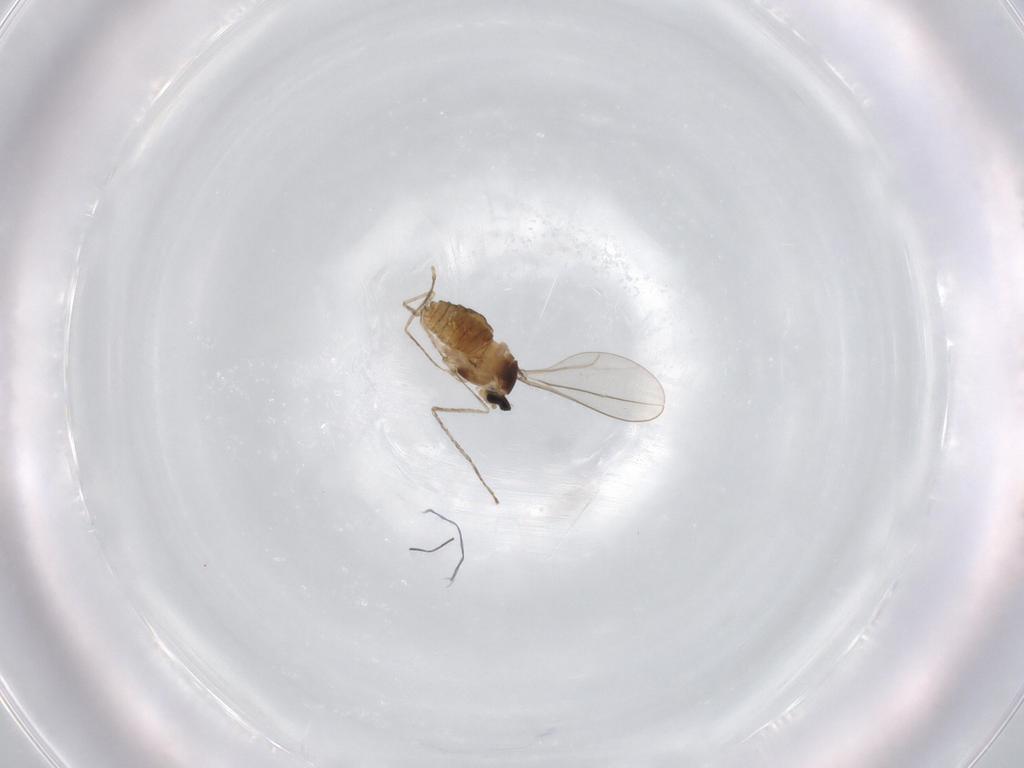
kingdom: Animalia
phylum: Arthropoda
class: Insecta
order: Diptera
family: Cecidomyiidae
